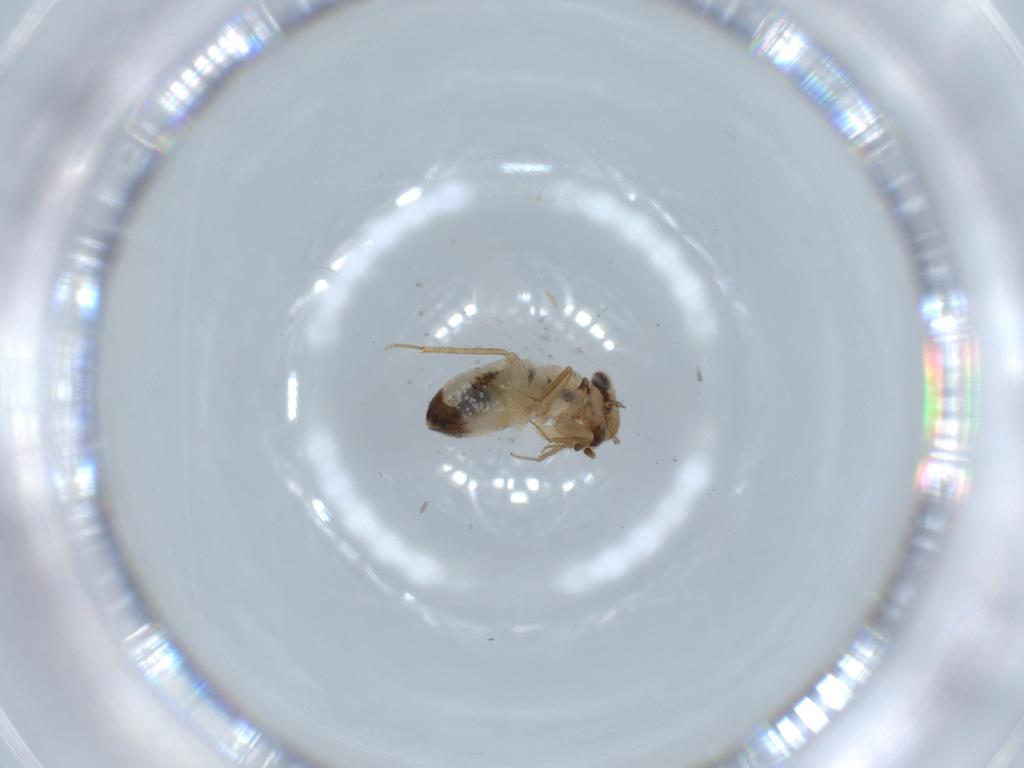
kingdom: Animalia
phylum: Arthropoda
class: Insecta
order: Psocodea
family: Lepidopsocidae
